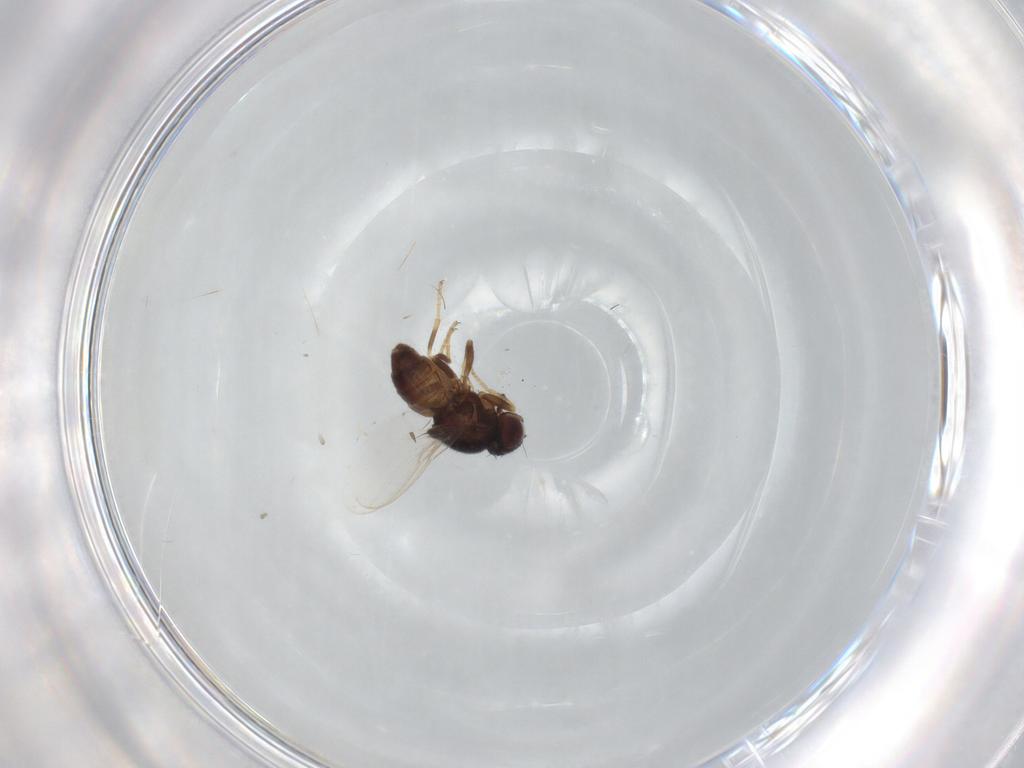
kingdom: Animalia
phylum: Arthropoda
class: Insecta
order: Diptera
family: Chloropidae
